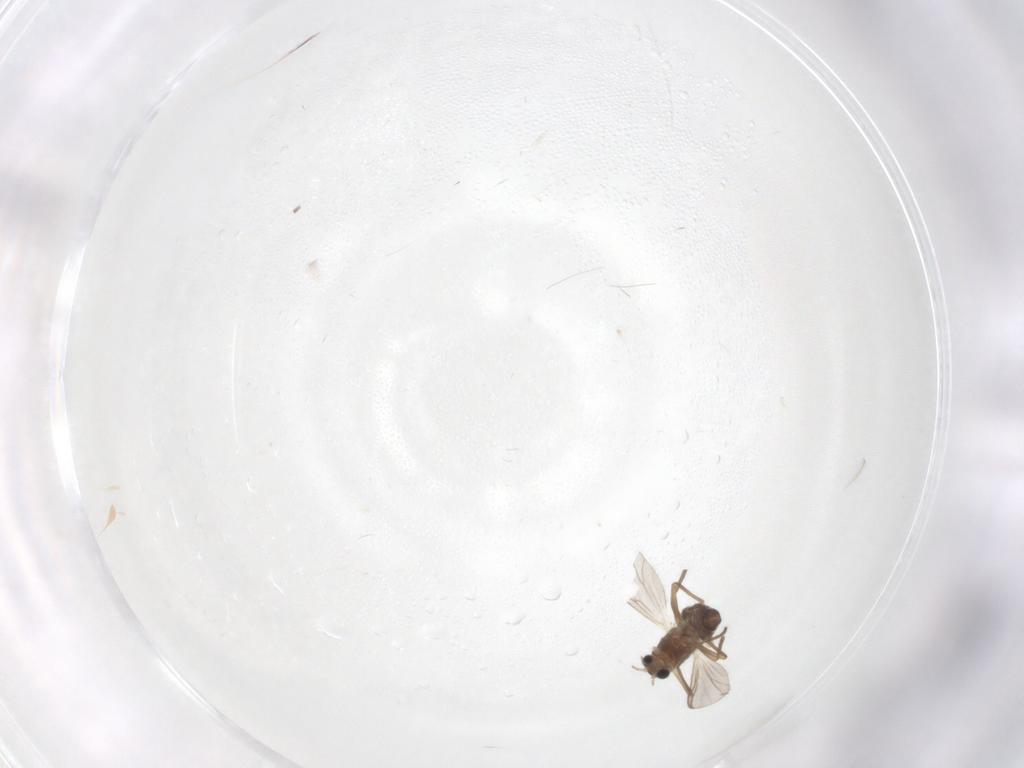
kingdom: Animalia
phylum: Arthropoda
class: Insecta
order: Diptera
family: Chironomidae
